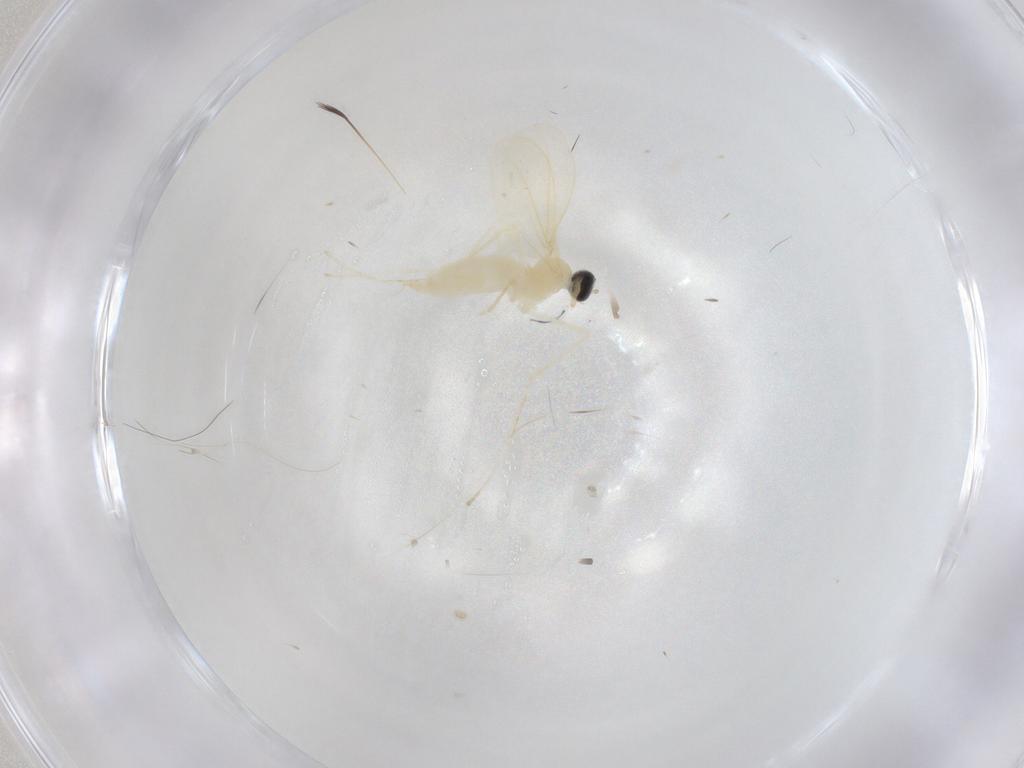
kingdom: Animalia
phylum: Arthropoda
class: Insecta
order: Diptera
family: Cecidomyiidae
